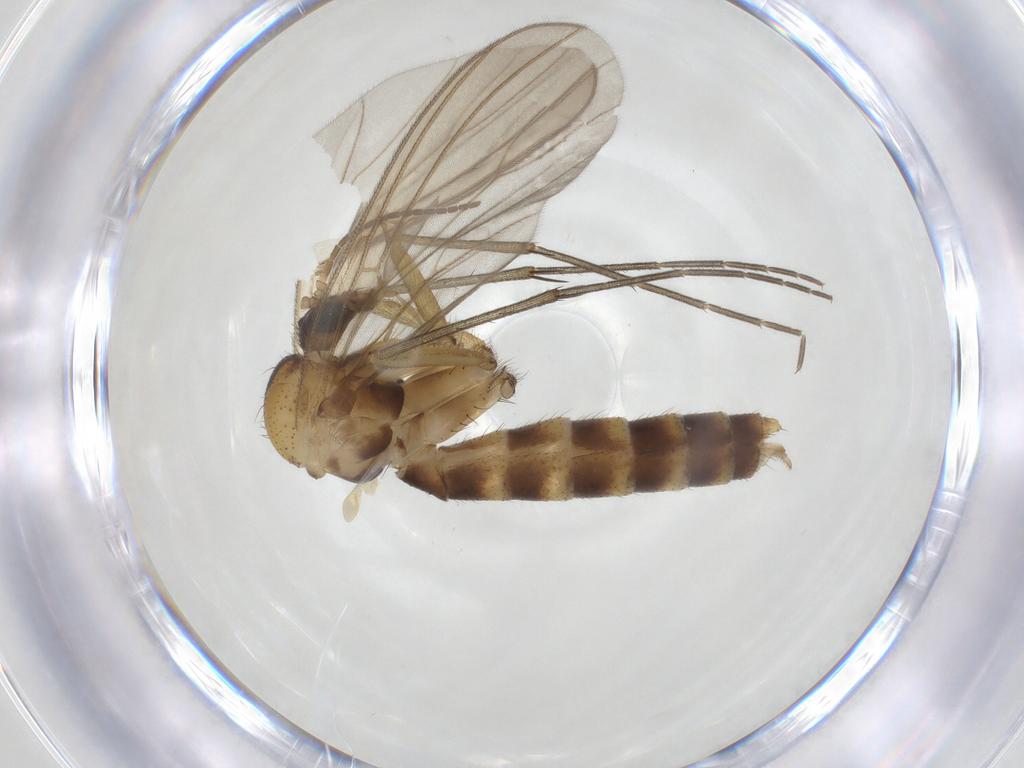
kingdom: Animalia
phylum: Arthropoda
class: Insecta
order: Diptera
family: Mycetophilidae
